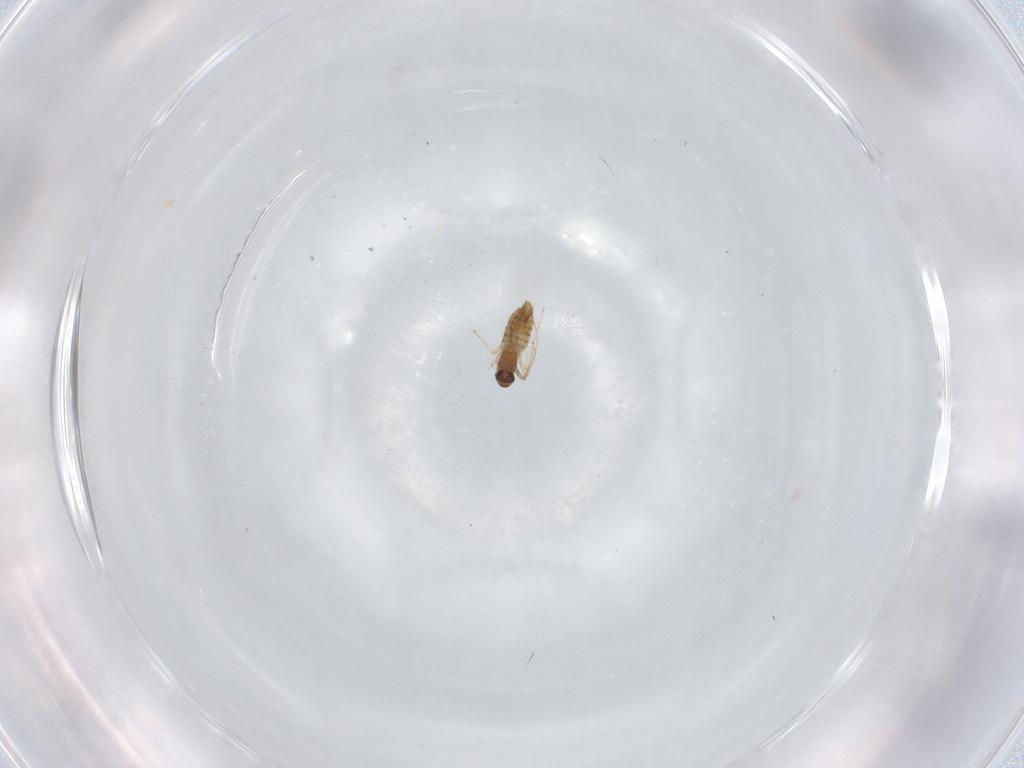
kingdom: Animalia
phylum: Arthropoda
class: Insecta
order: Diptera
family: Chironomidae
